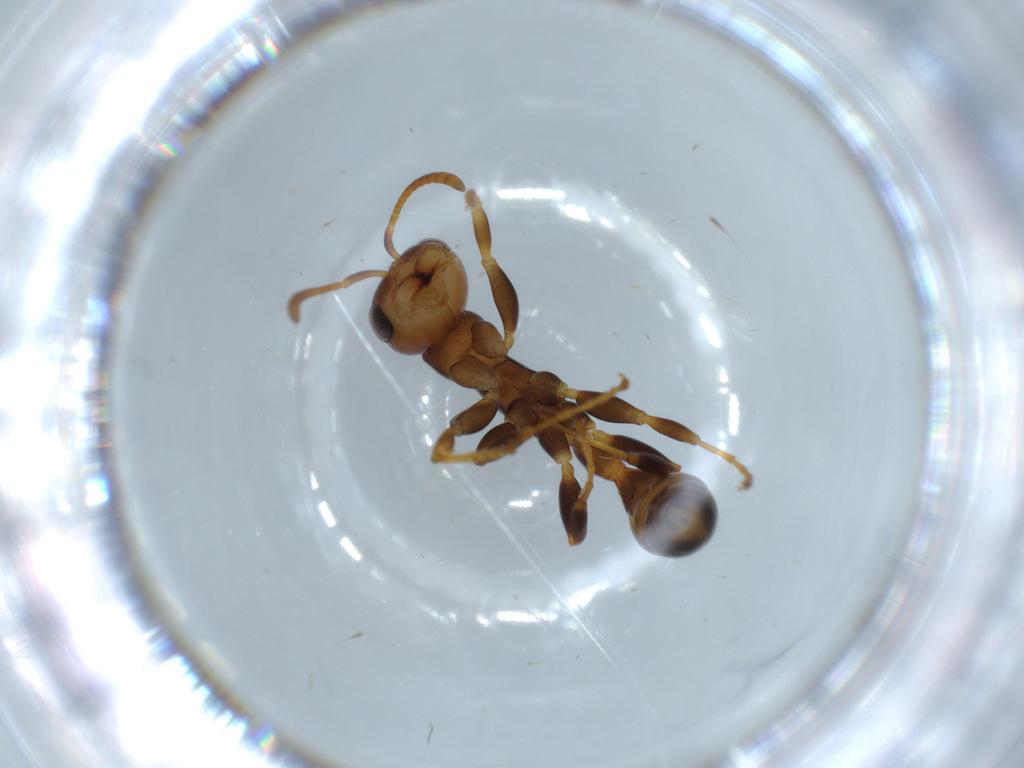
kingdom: Animalia
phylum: Arthropoda
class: Insecta
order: Hymenoptera
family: Formicidae
